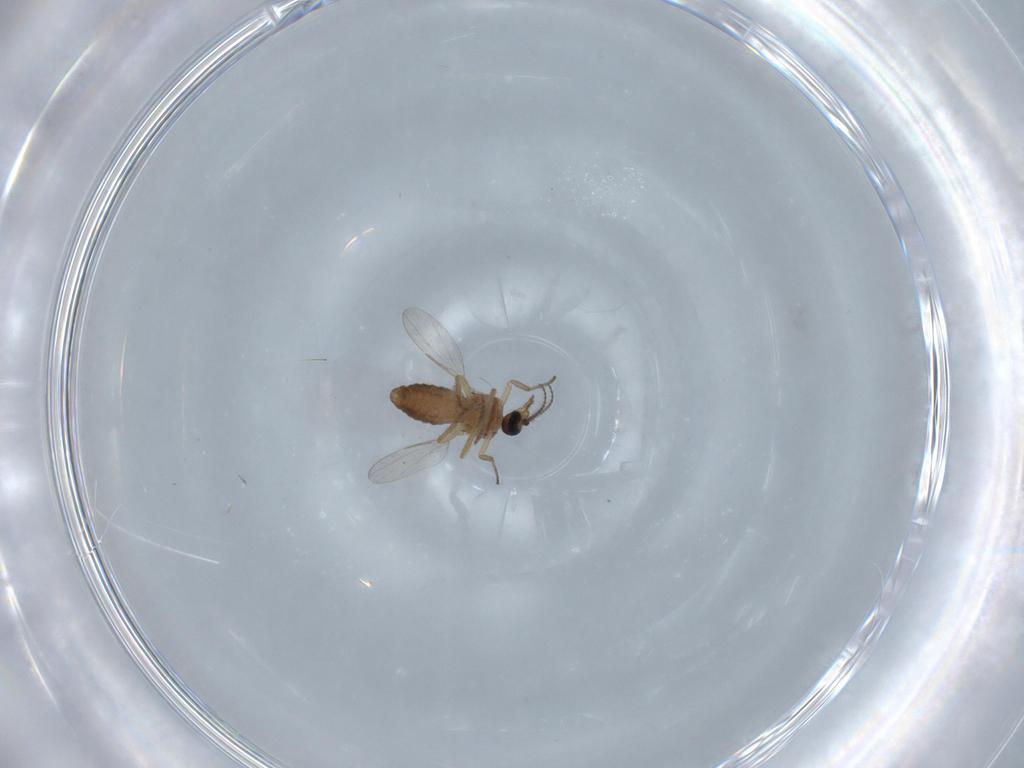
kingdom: Animalia
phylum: Arthropoda
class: Insecta
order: Diptera
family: Ceratopogonidae
